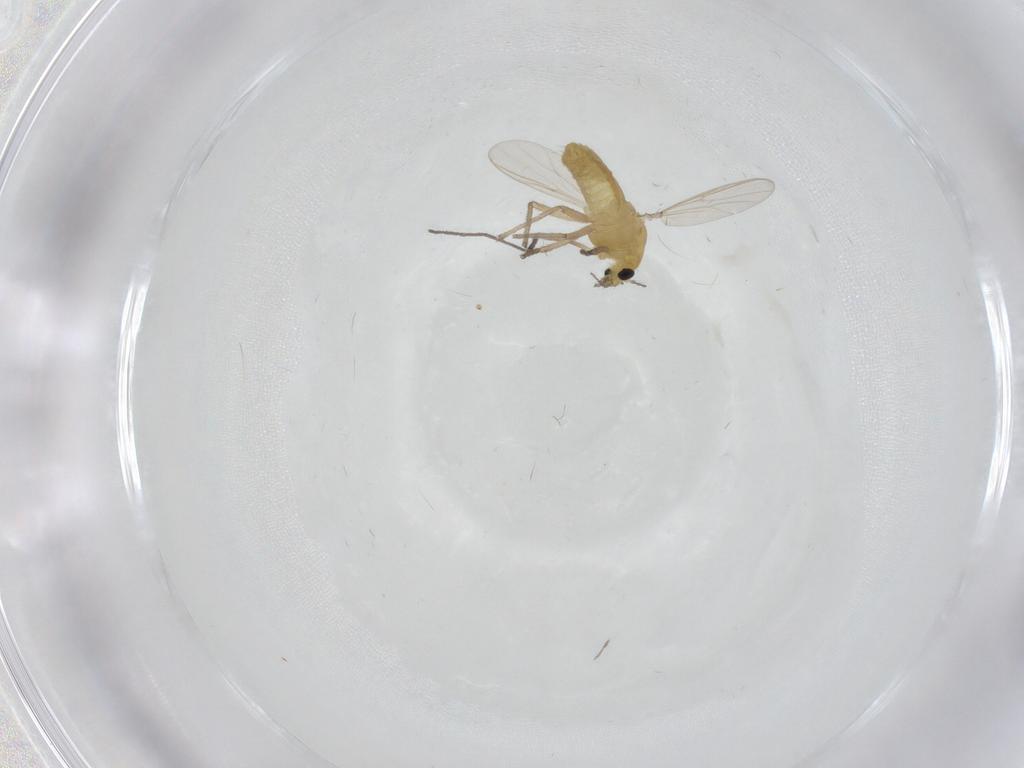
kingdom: Animalia
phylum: Arthropoda
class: Insecta
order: Diptera
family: Chironomidae
